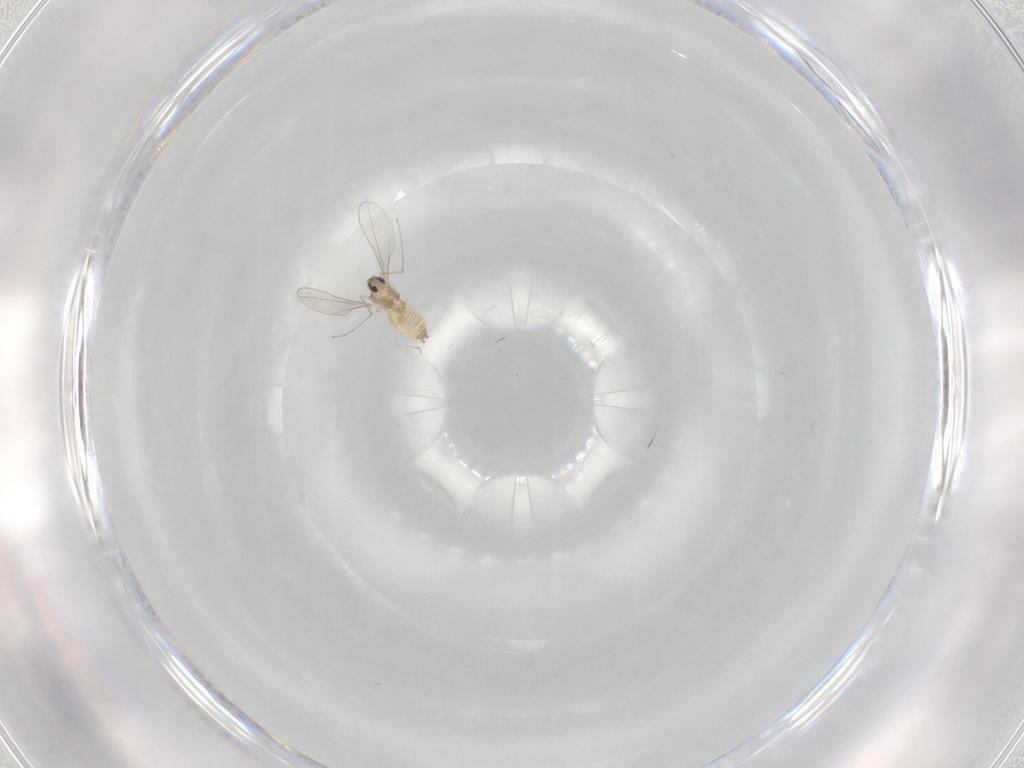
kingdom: Animalia
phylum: Arthropoda
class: Insecta
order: Diptera
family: Cecidomyiidae
